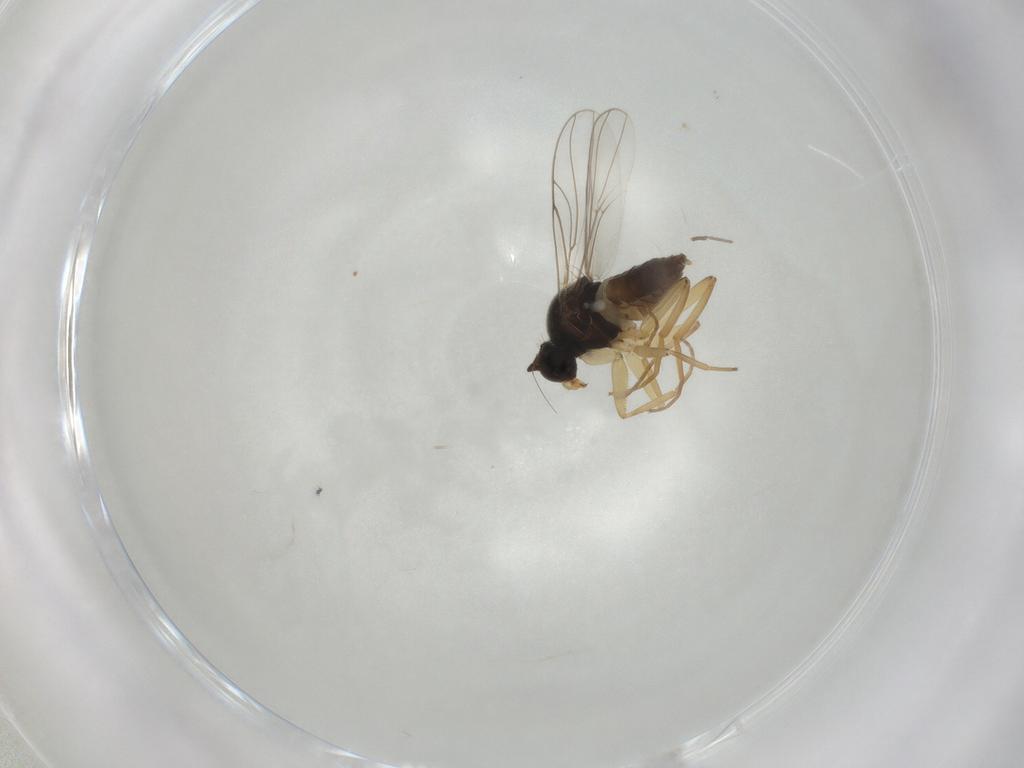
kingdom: Animalia
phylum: Arthropoda
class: Insecta
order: Diptera
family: Hybotidae
